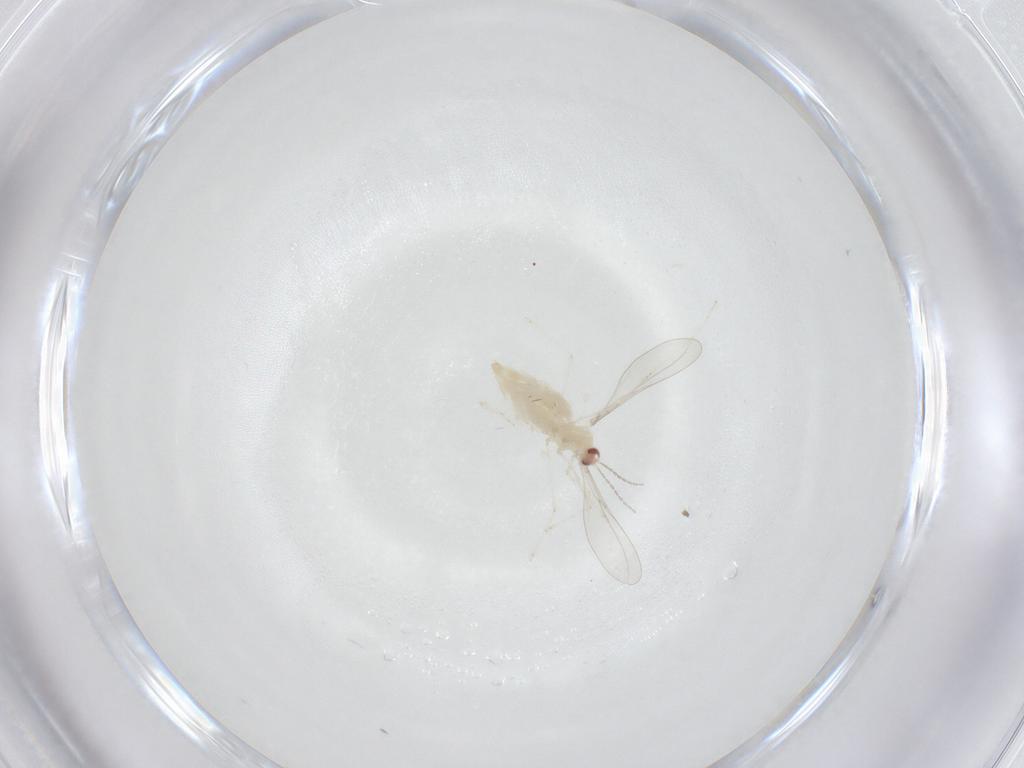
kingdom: Animalia
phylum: Arthropoda
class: Insecta
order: Diptera
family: Cecidomyiidae
